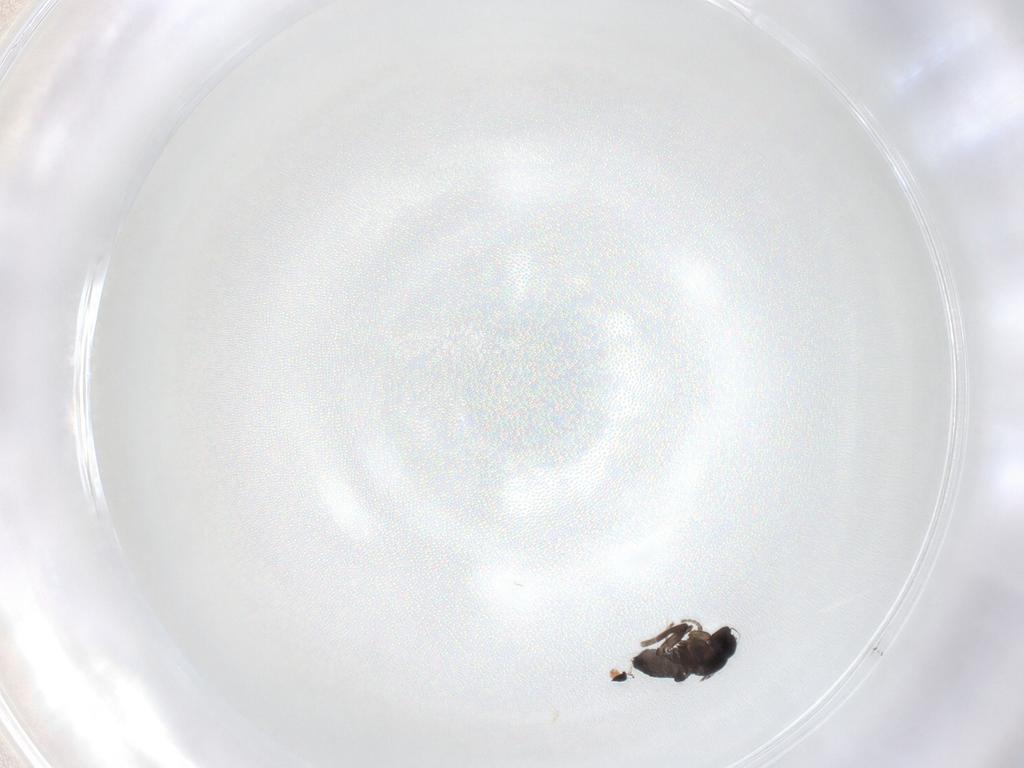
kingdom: Animalia
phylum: Arthropoda
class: Insecta
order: Diptera
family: Phoridae
